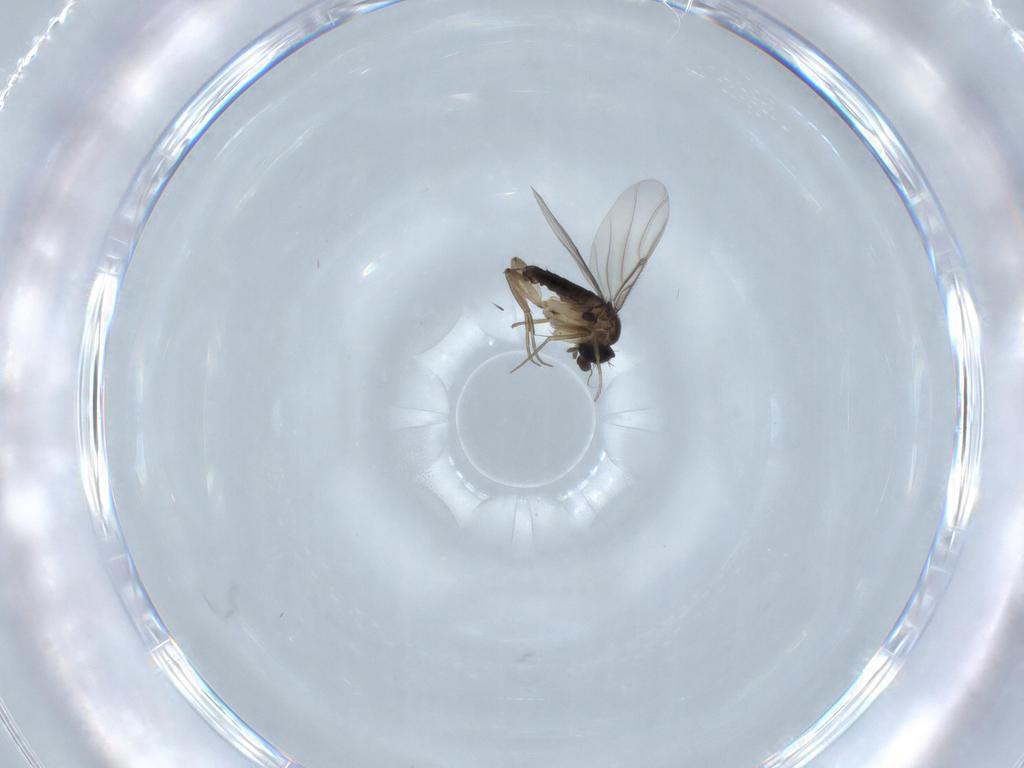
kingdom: Animalia
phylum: Arthropoda
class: Insecta
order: Diptera
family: Phoridae
